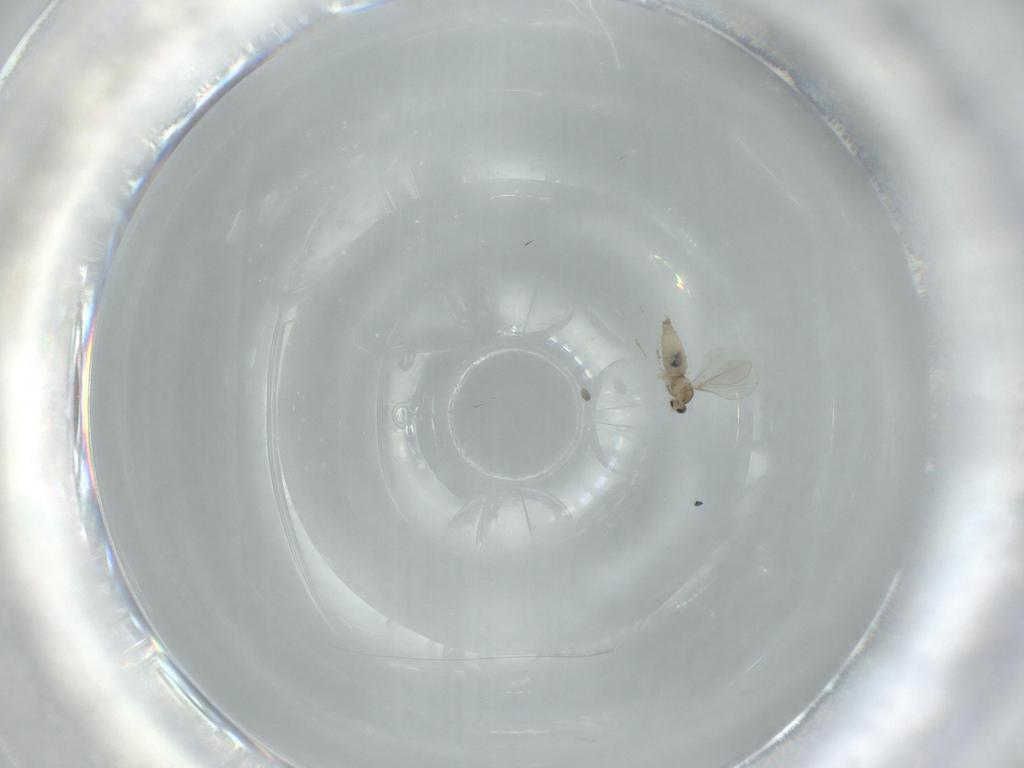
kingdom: Animalia
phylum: Arthropoda
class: Insecta
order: Diptera
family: Cecidomyiidae
